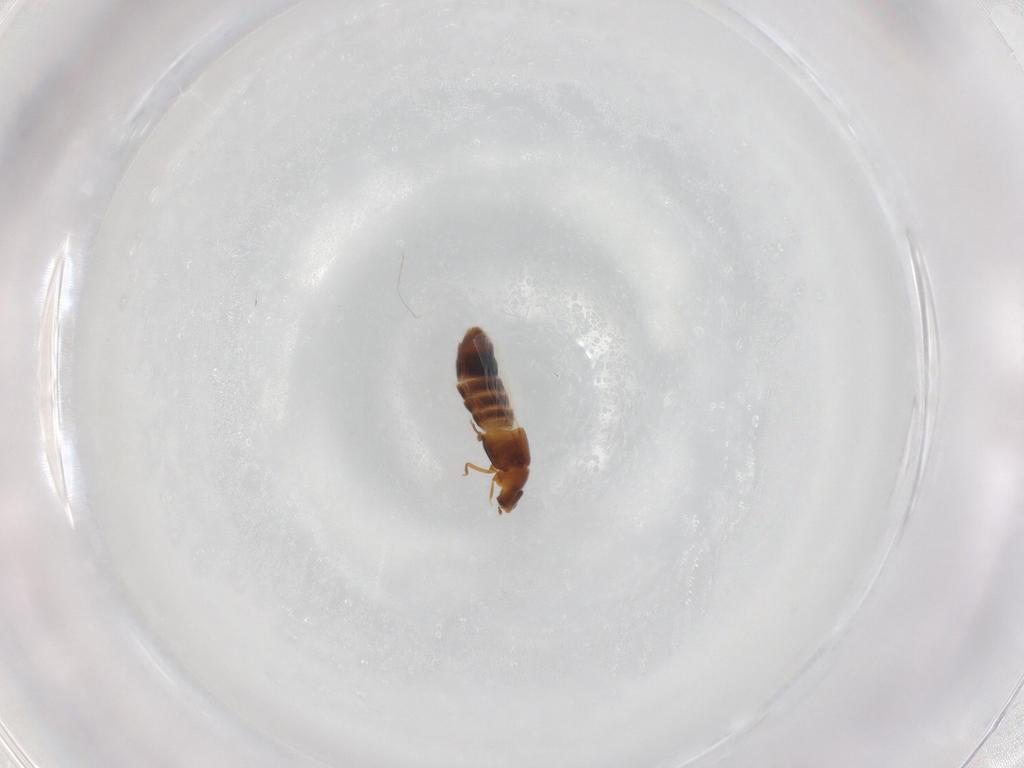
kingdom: Animalia
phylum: Arthropoda
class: Insecta
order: Coleoptera
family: Staphylinidae
